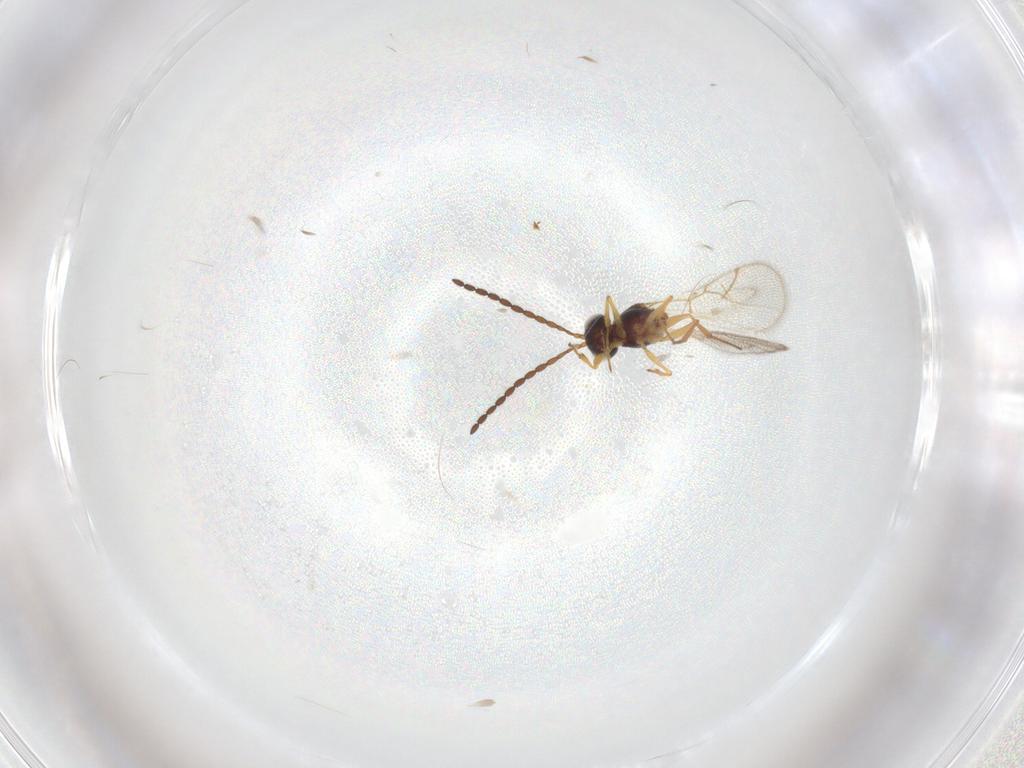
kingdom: Animalia
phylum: Arthropoda
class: Insecta
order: Hymenoptera
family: Figitidae
